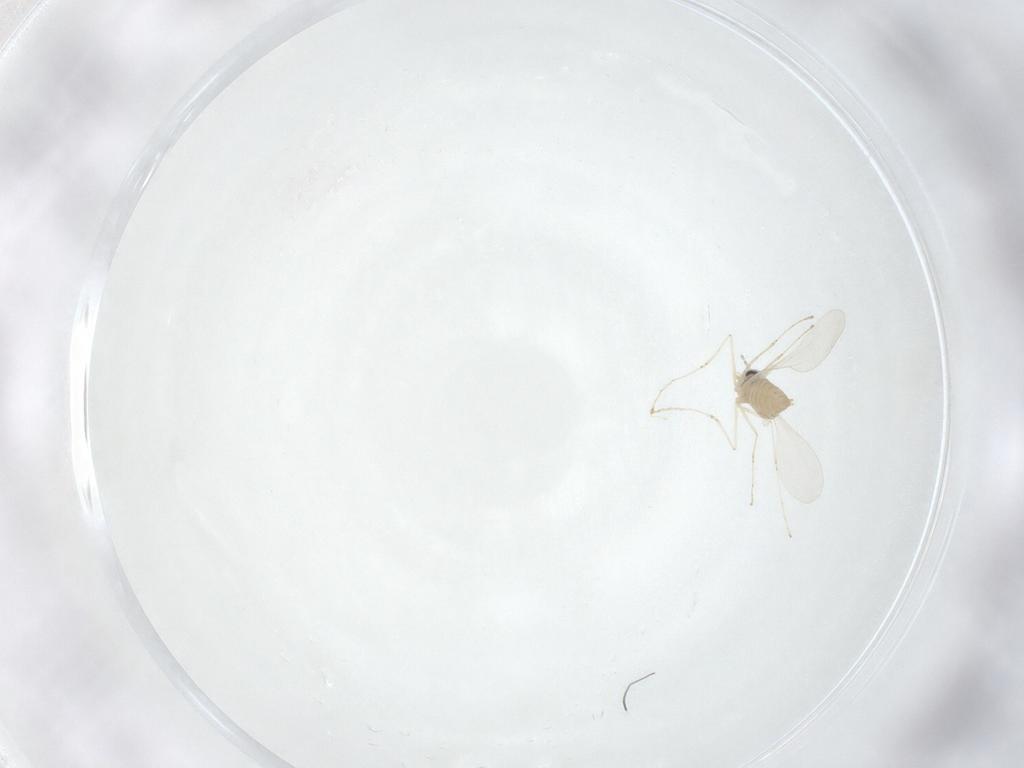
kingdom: Animalia
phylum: Arthropoda
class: Insecta
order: Diptera
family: Cecidomyiidae
